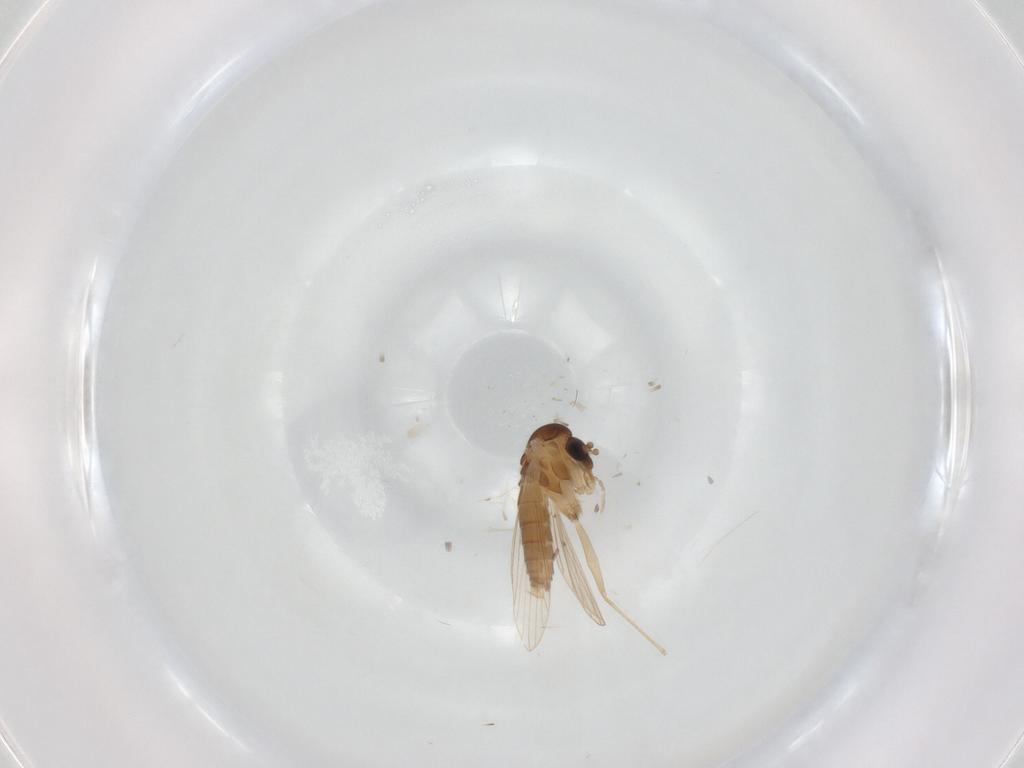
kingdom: Animalia
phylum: Arthropoda
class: Insecta
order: Diptera
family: Psychodidae
